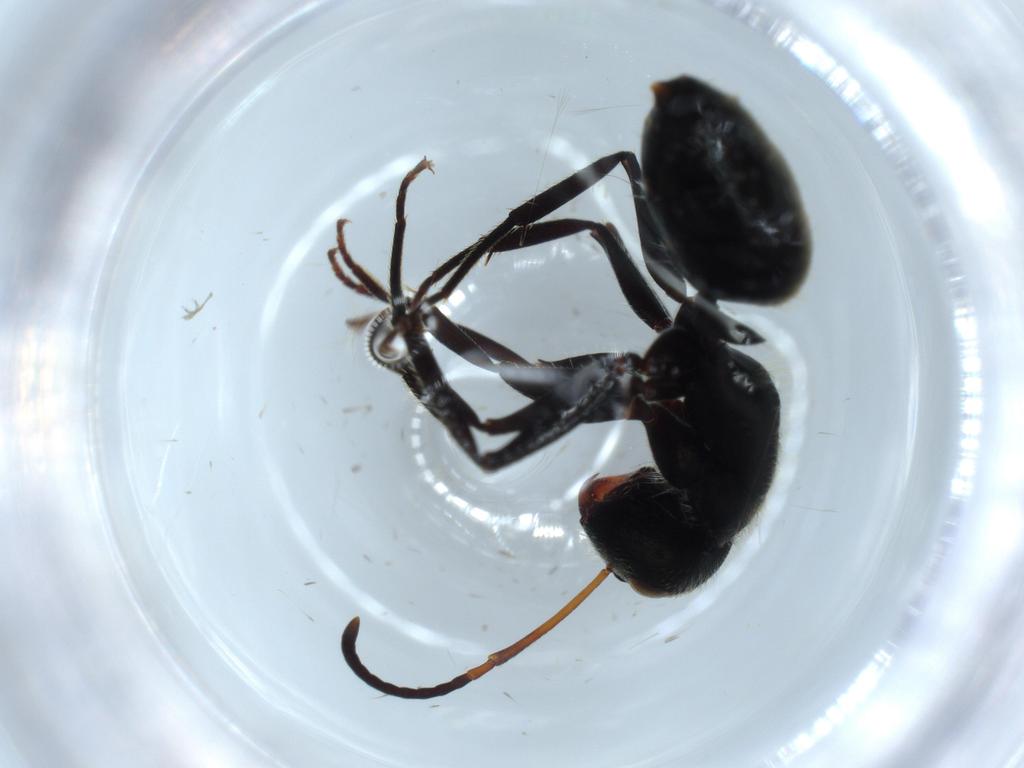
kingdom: Animalia
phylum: Arthropoda
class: Insecta
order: Hymenoptera
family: Formicidae
